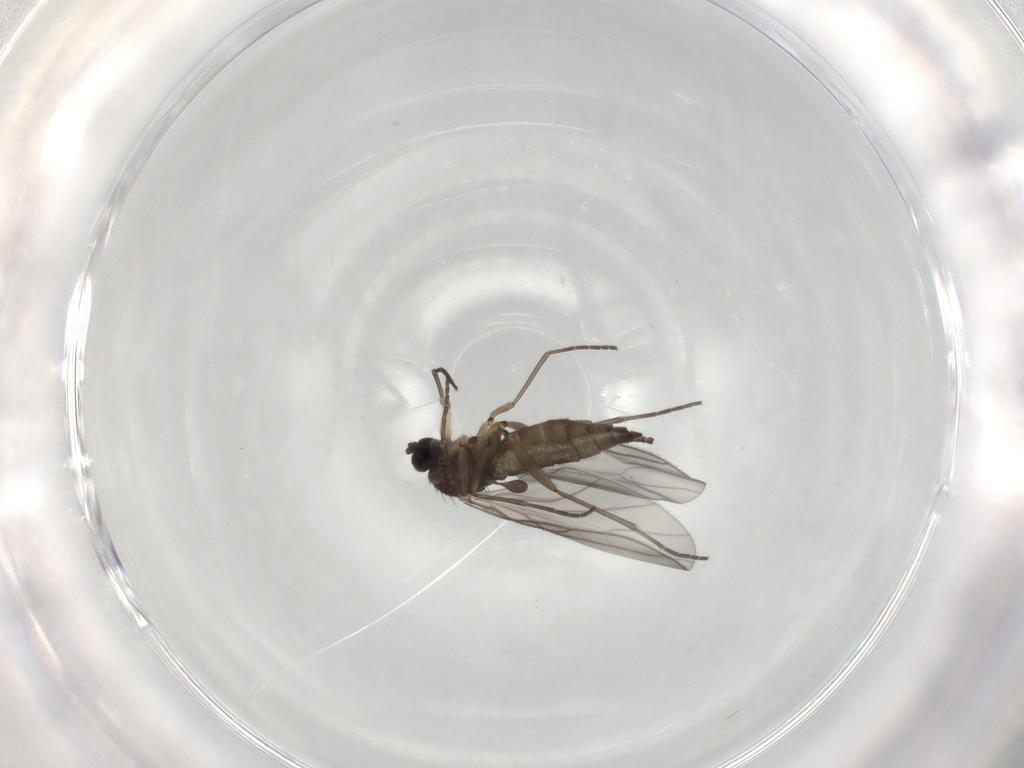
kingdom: Animalia
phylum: Arthropoda
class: Insecta
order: Diptera
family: Sciaridae
